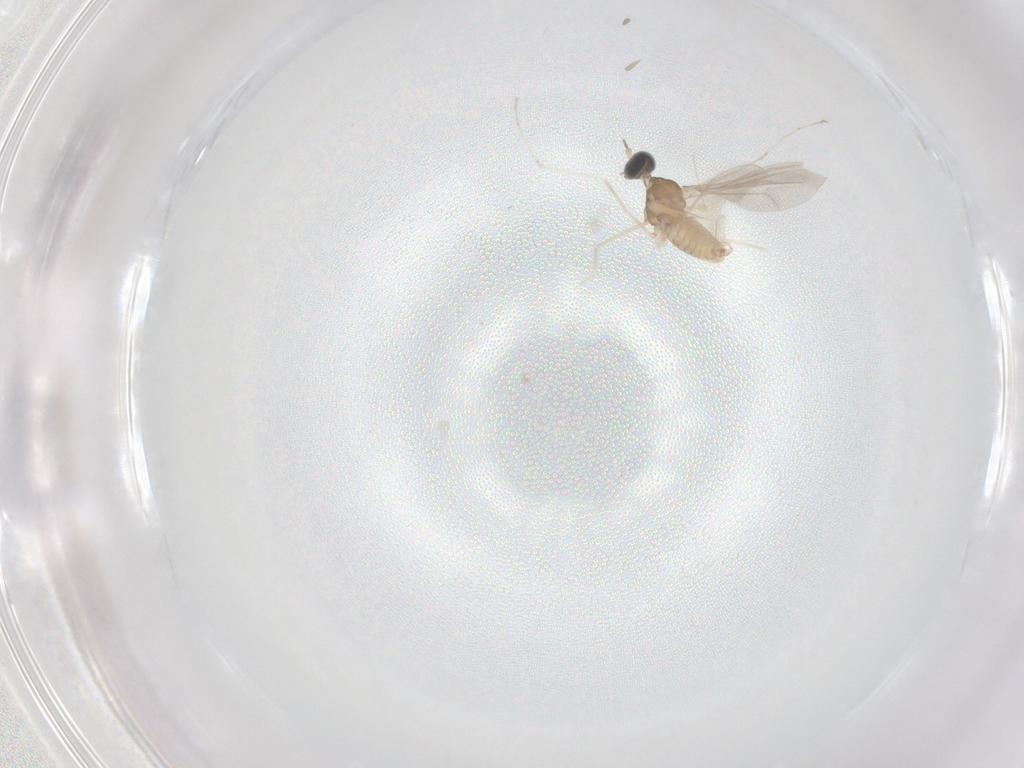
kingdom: Animalia
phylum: Arthropoda
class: Insecta
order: Diptera
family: Cecidomyiidae
